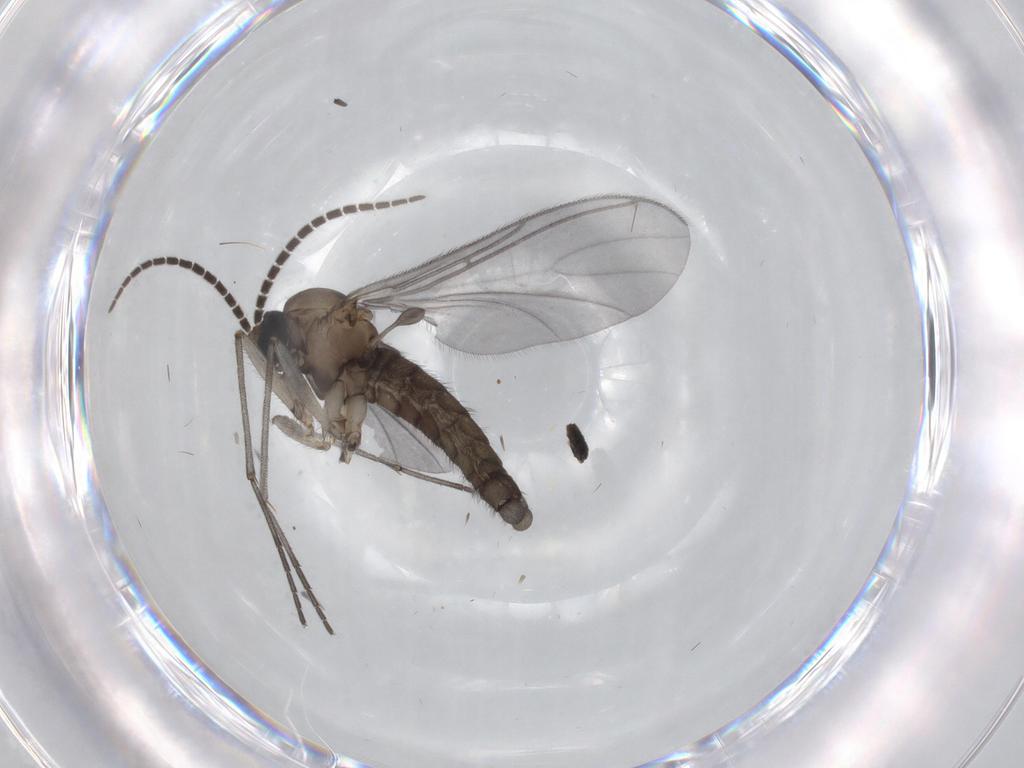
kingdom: Animalia
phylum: Arthropoda
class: Insecta
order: Diptera
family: Sciaridae
